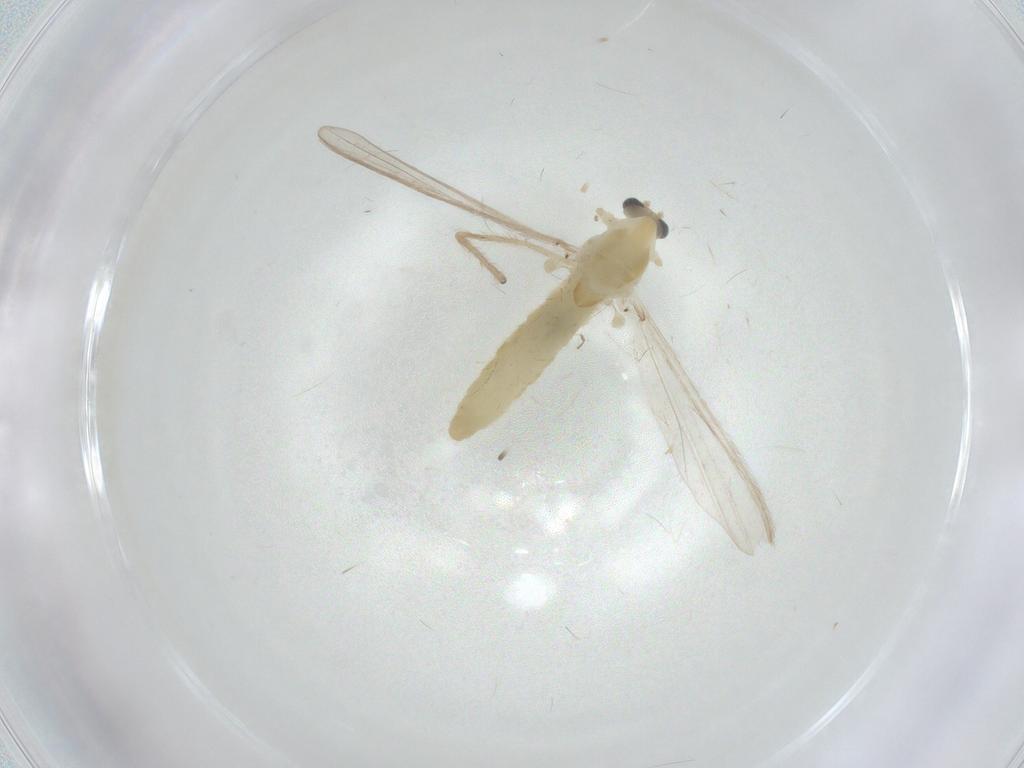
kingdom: Animalia
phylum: Arthropoda
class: Insecta
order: Diptera
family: Chironomidae
